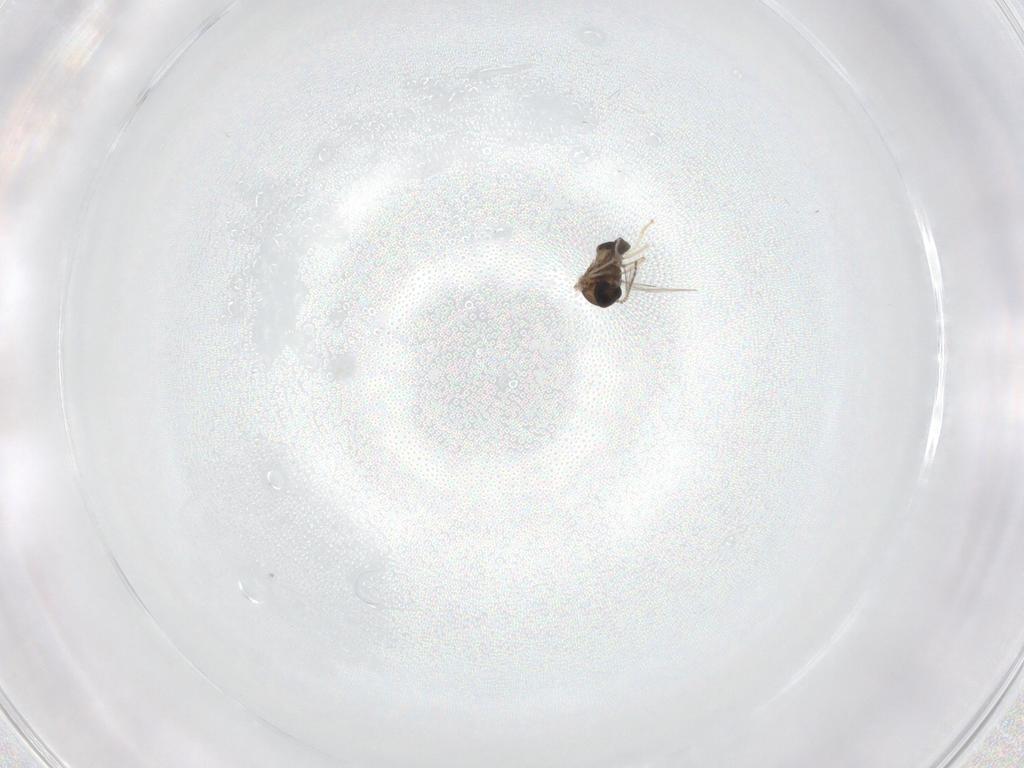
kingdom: Animalia
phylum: Arthropoda
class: Insecta
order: Diptera
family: Ceratopogonidae
